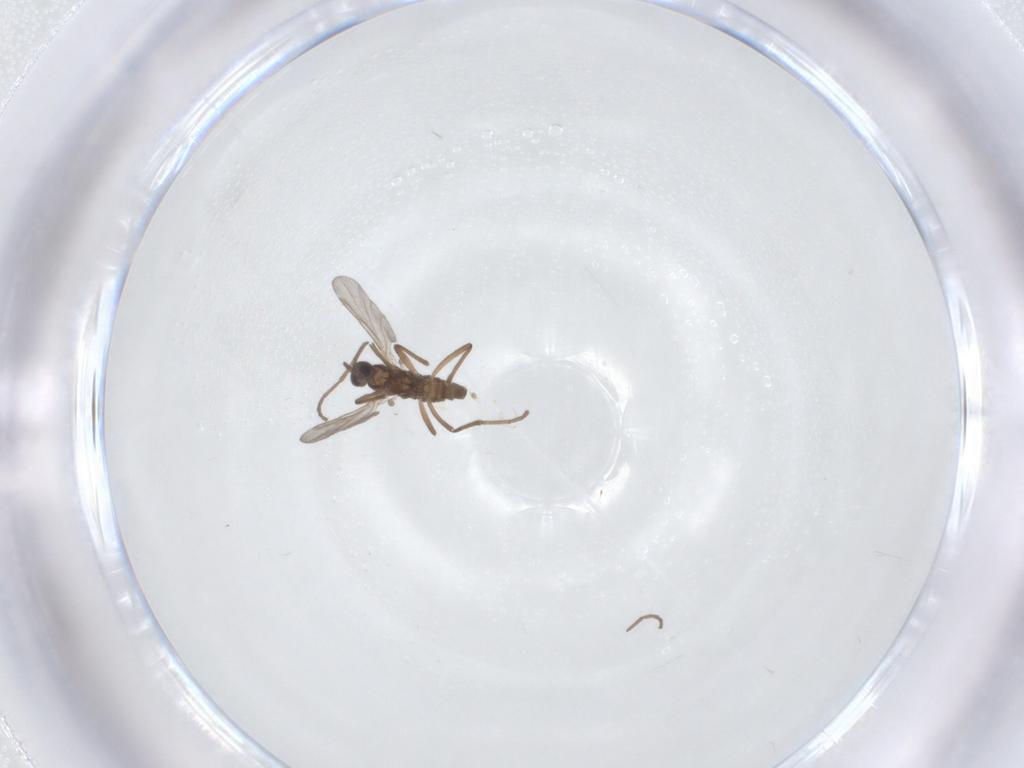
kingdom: Animalia
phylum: Arthropoda
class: Insecta
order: Diptera
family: Cecidomyiidae
